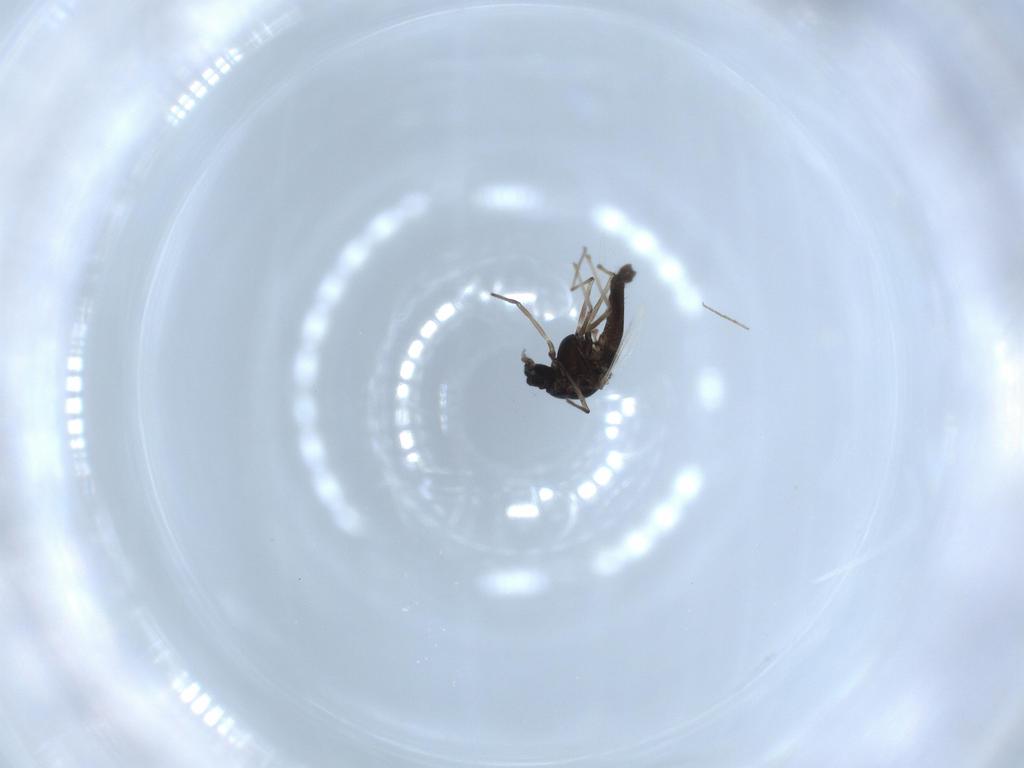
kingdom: Animalia
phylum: Arthropoda
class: Insecta
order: Diptera
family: Chironomidae
